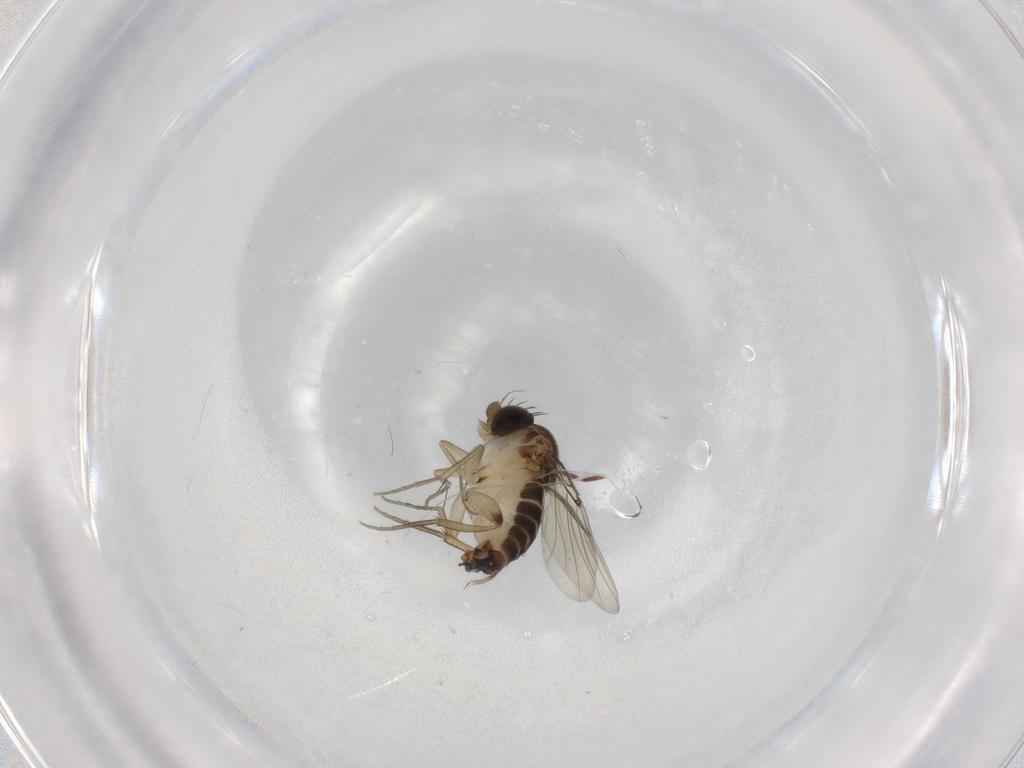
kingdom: Animalia
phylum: Arthropoda
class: Insecta
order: Diptera
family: Phoridae
